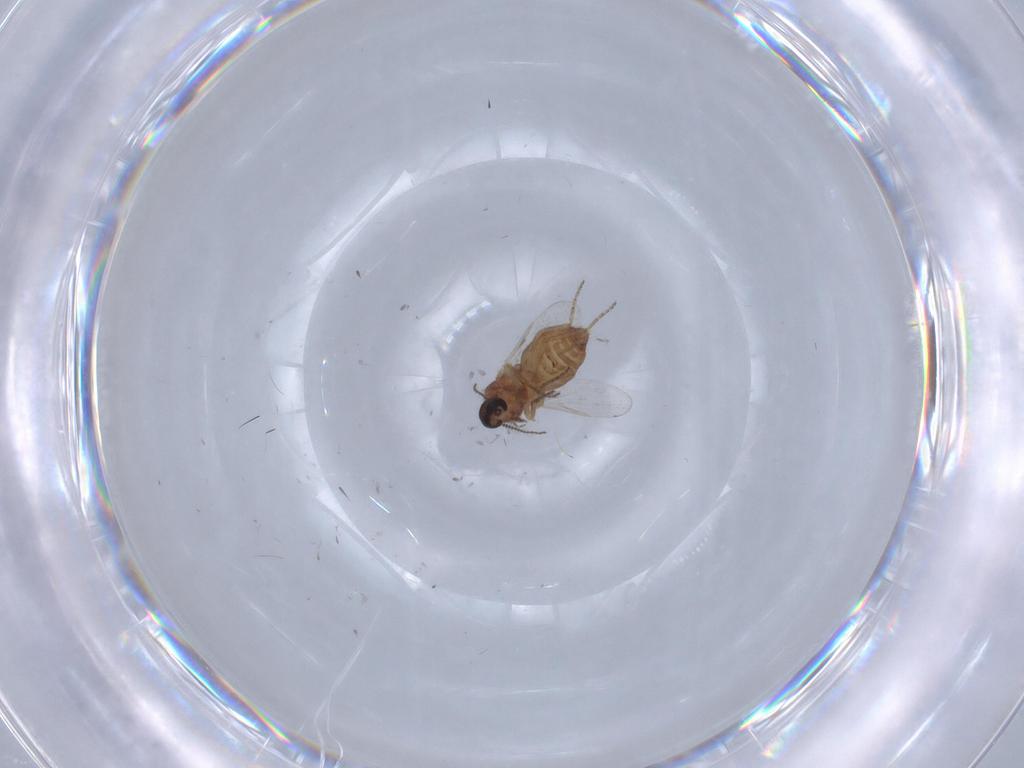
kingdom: Animalia
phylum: Arthropoda
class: Insecta
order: Diptera
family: Ceratopogonidae
